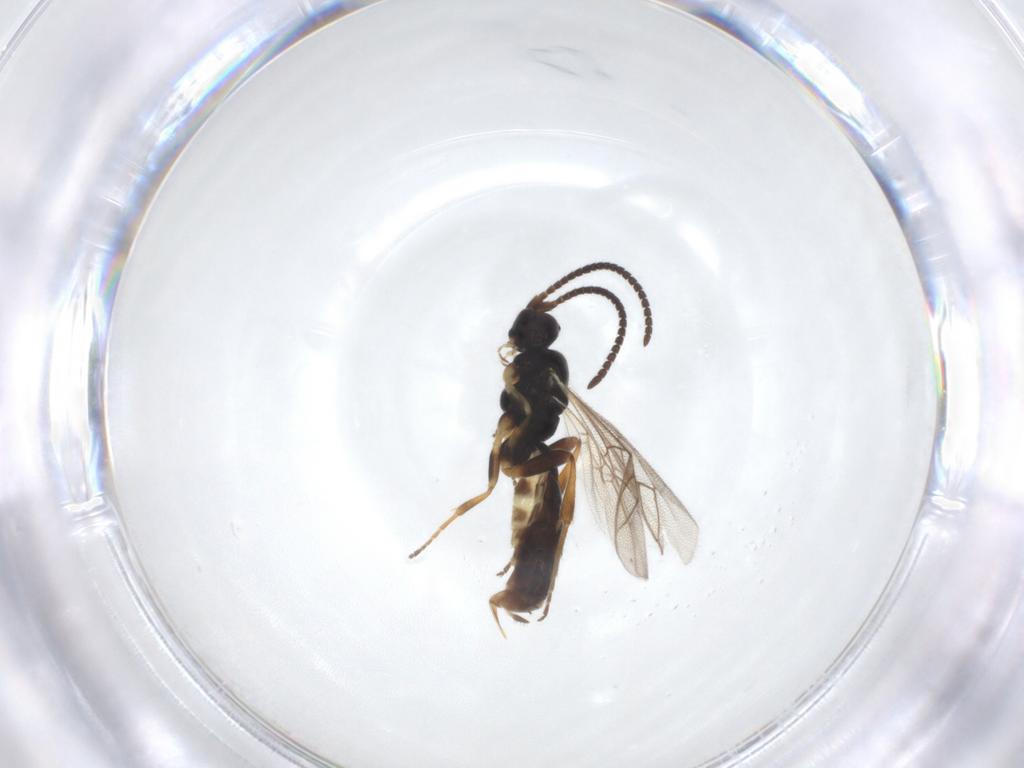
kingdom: Animalia
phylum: Arthropoda
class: Insecta
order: Hymenoptera
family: Ichneumonidae
